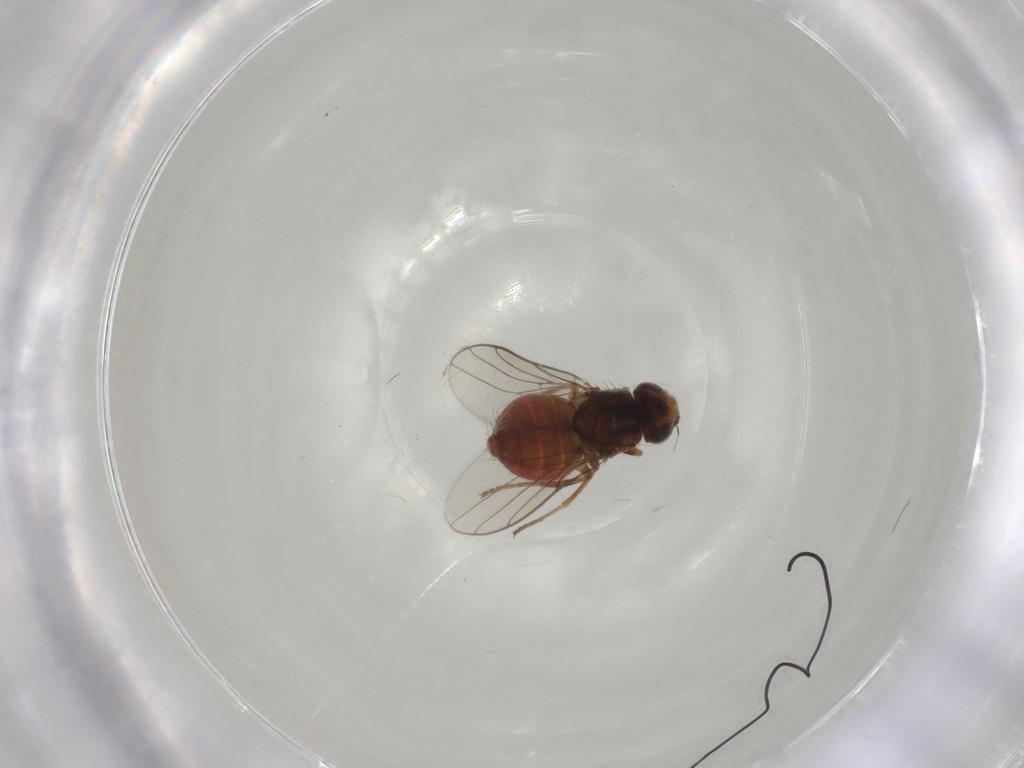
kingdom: Animalia
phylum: Arthropoda
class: Insecta
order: Diptera
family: Chloropidae
